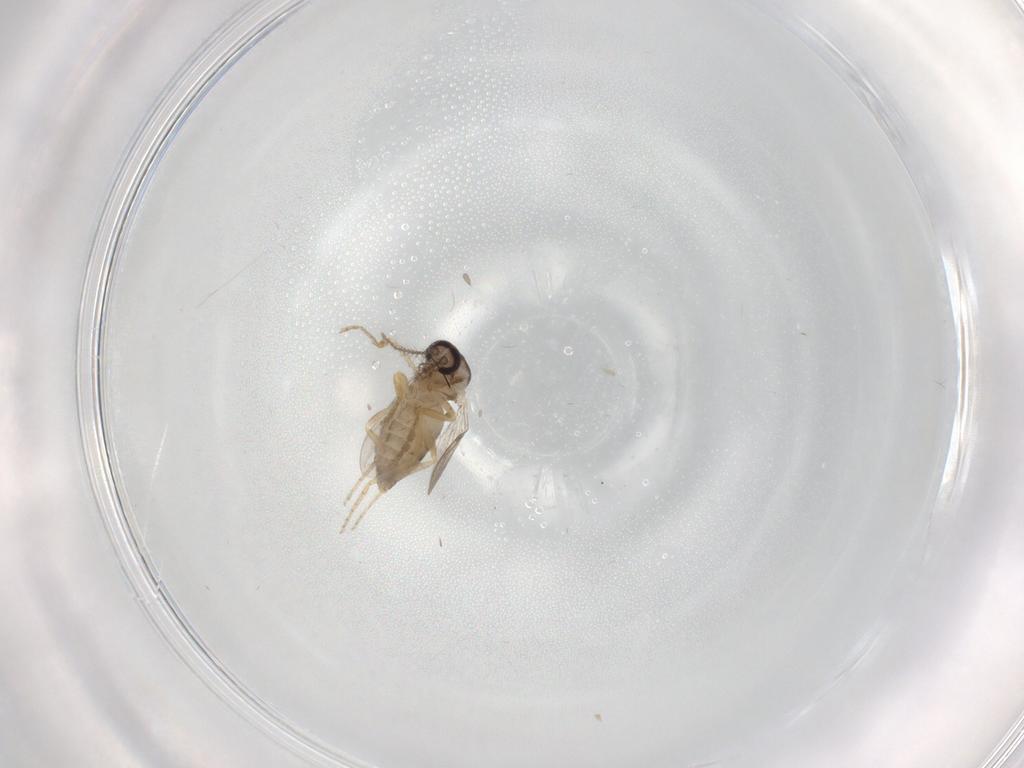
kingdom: Animalia
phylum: Arthropoda
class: Insecta
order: Diptera
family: Ceratopogonidae
